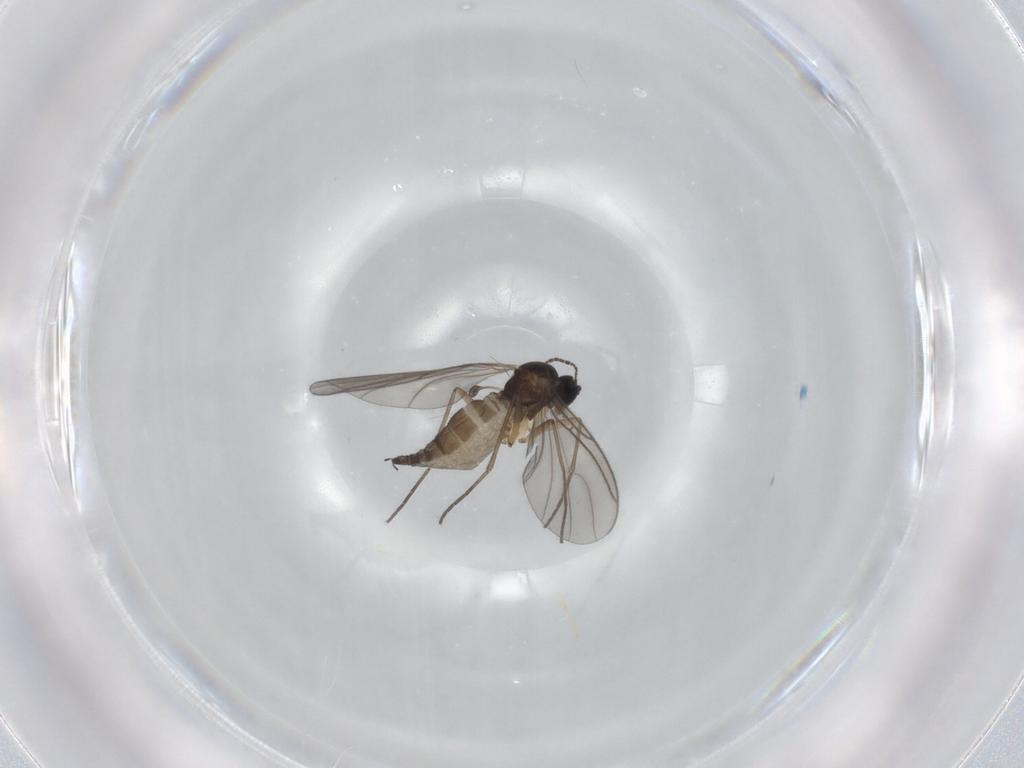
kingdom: Animalia
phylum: Arthropoda
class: Insecta
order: Diptera
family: Sciaridae
